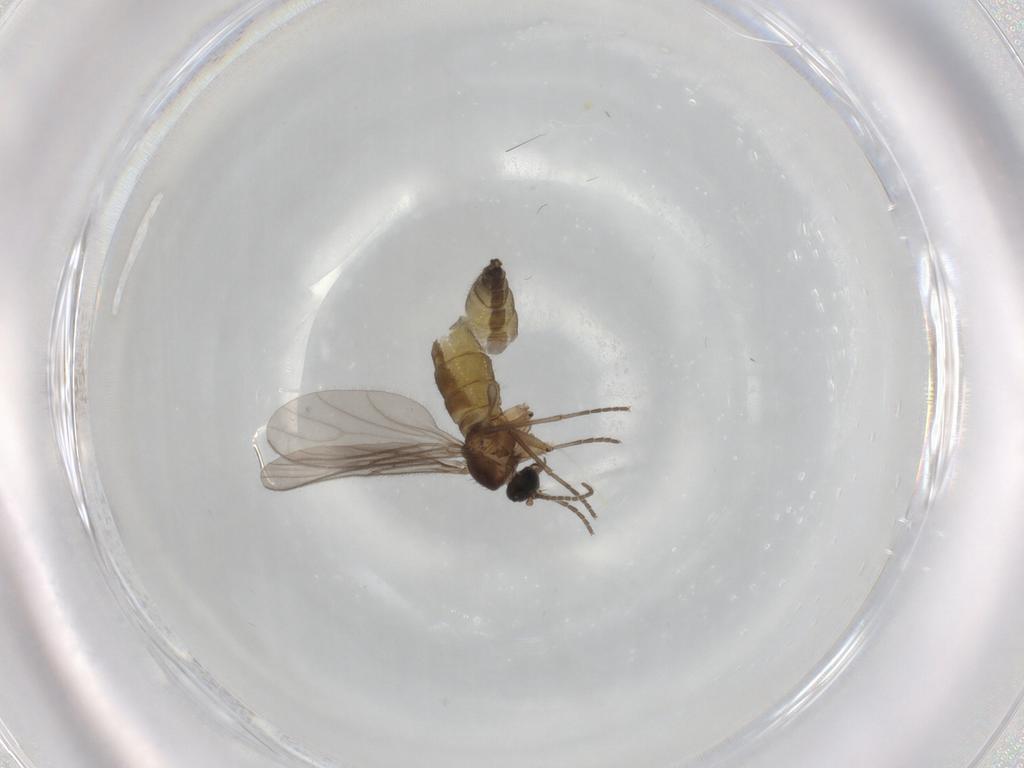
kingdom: Animalia
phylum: Arthropoda
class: Insecta
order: Diptera
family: Sciaridae
